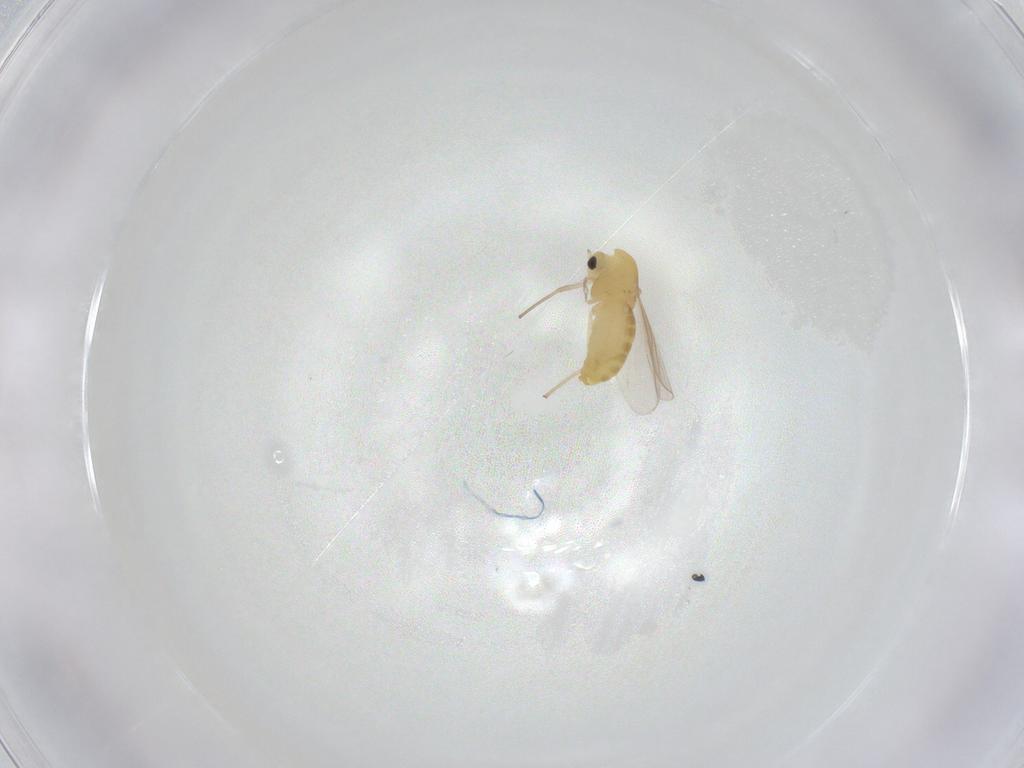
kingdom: Animalia
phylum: Arthropoda
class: Insecta
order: Diptera
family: Chironomidae
